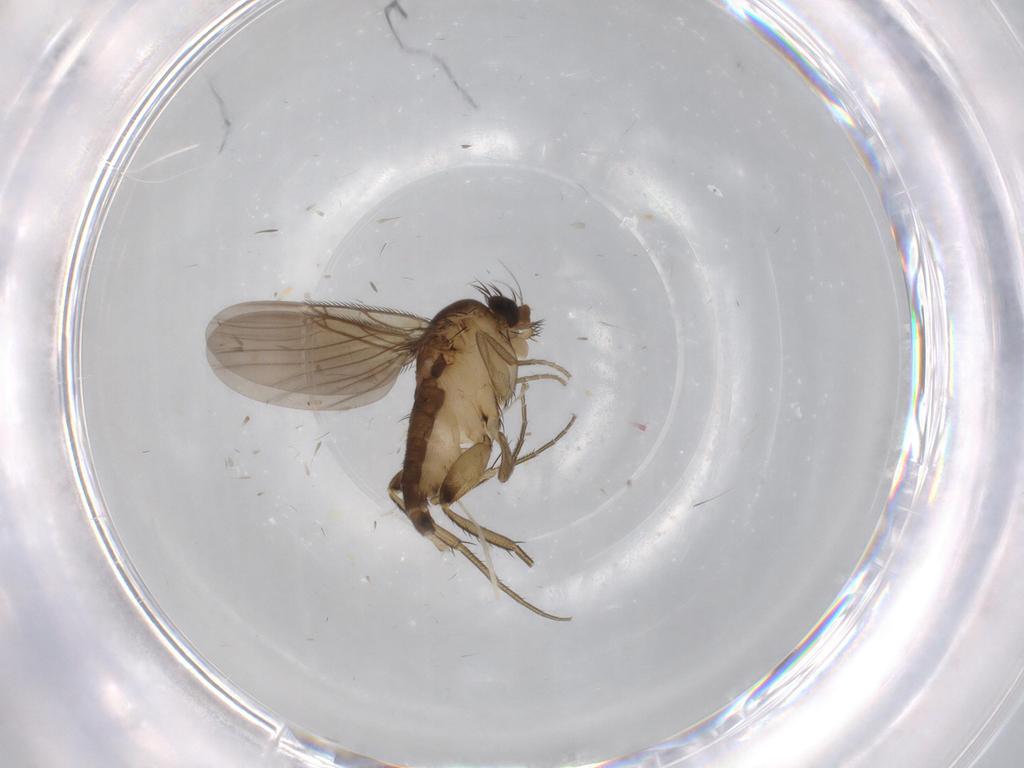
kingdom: Animalia
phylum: Arthropoda
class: Insecta
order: Diptera
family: Phoridae
